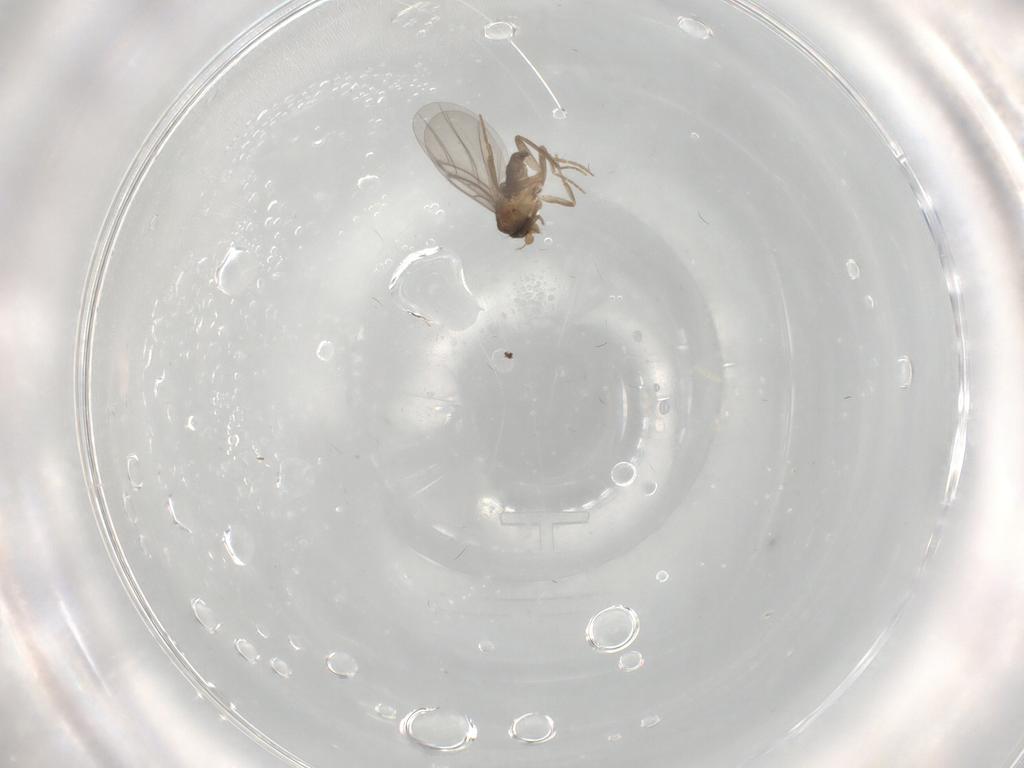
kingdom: Animalia
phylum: Arthropoda
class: Insecta
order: Diptera
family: Chironomidae
